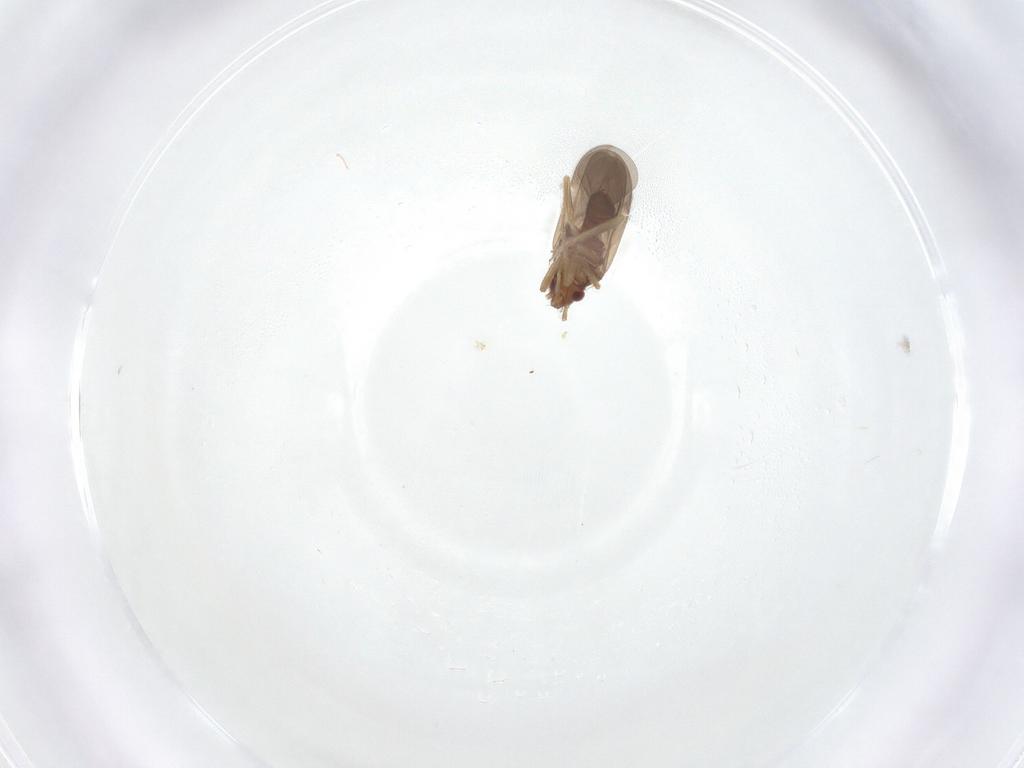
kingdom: Animalia
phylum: Arthropoda
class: Insecta
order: Hemiptera
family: Ceratocombidae
